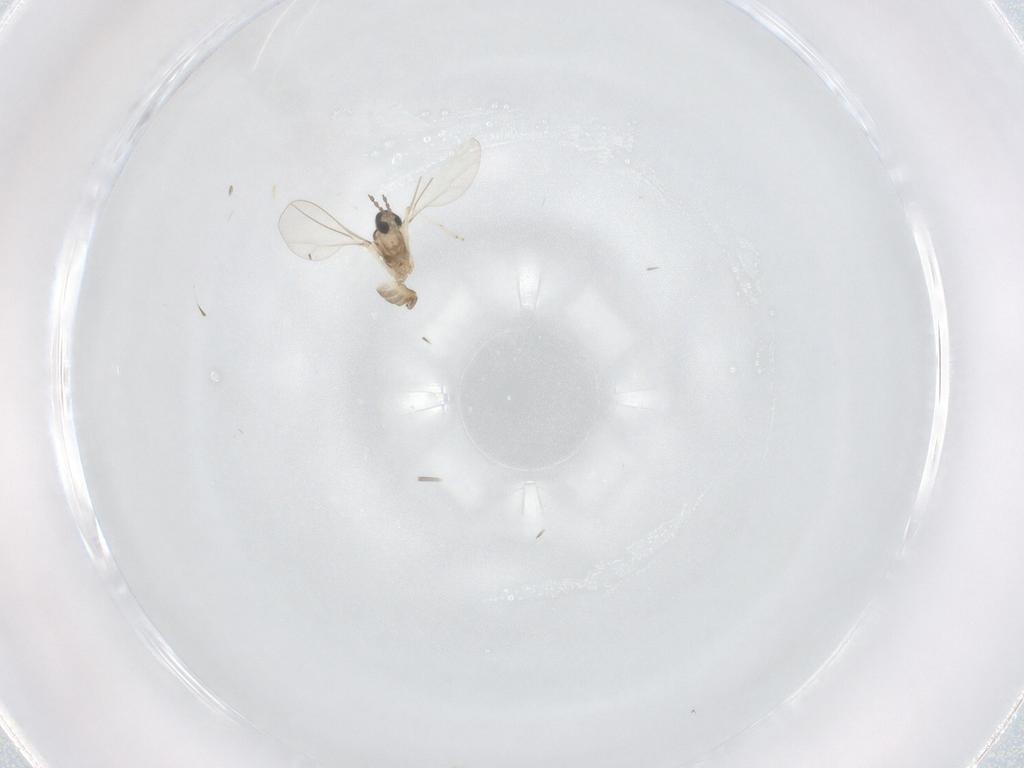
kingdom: Animalia
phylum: Arthropoda
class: Insecta
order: Diptera
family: Cecidomyiidae
